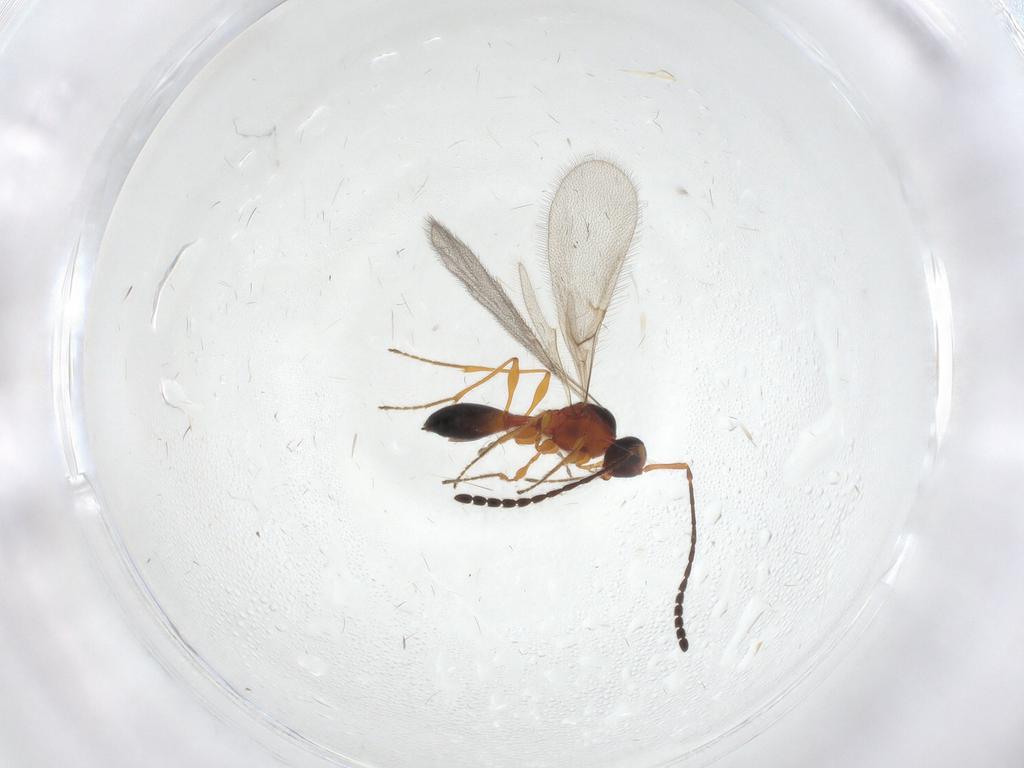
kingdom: Animalia
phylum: Arthropoda
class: Insecta
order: Hymenoptera
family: Diapriidae
